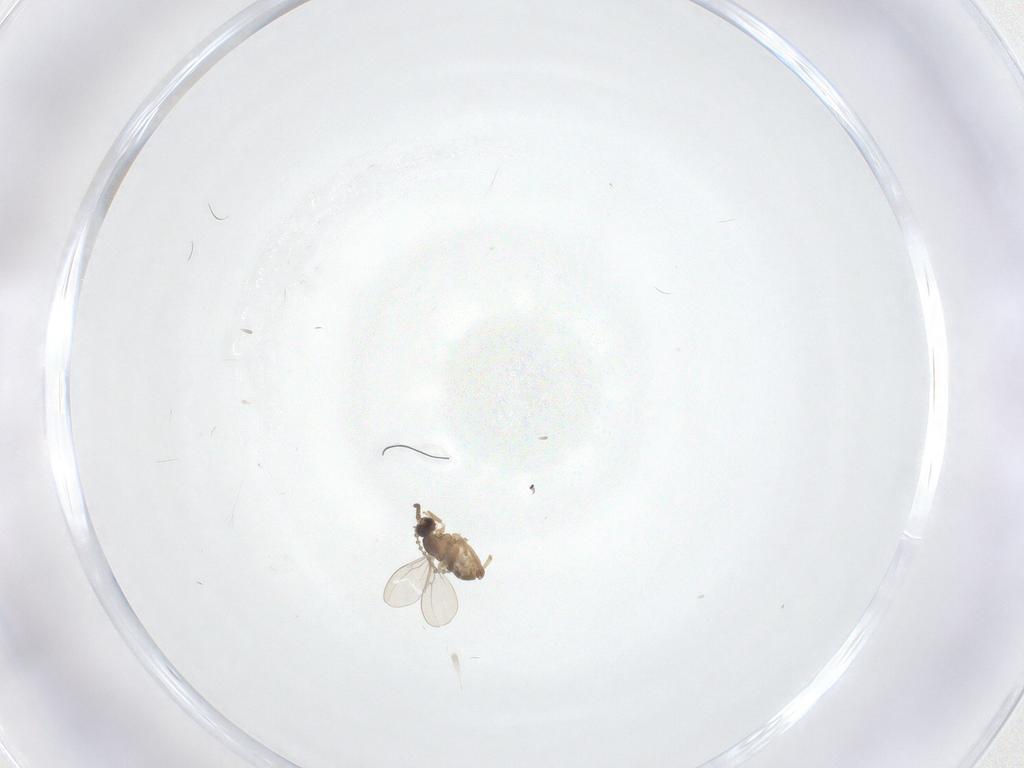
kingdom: Animalia
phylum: Arthropoda
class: Insecta
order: Diptera
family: Cecidomyiidae
